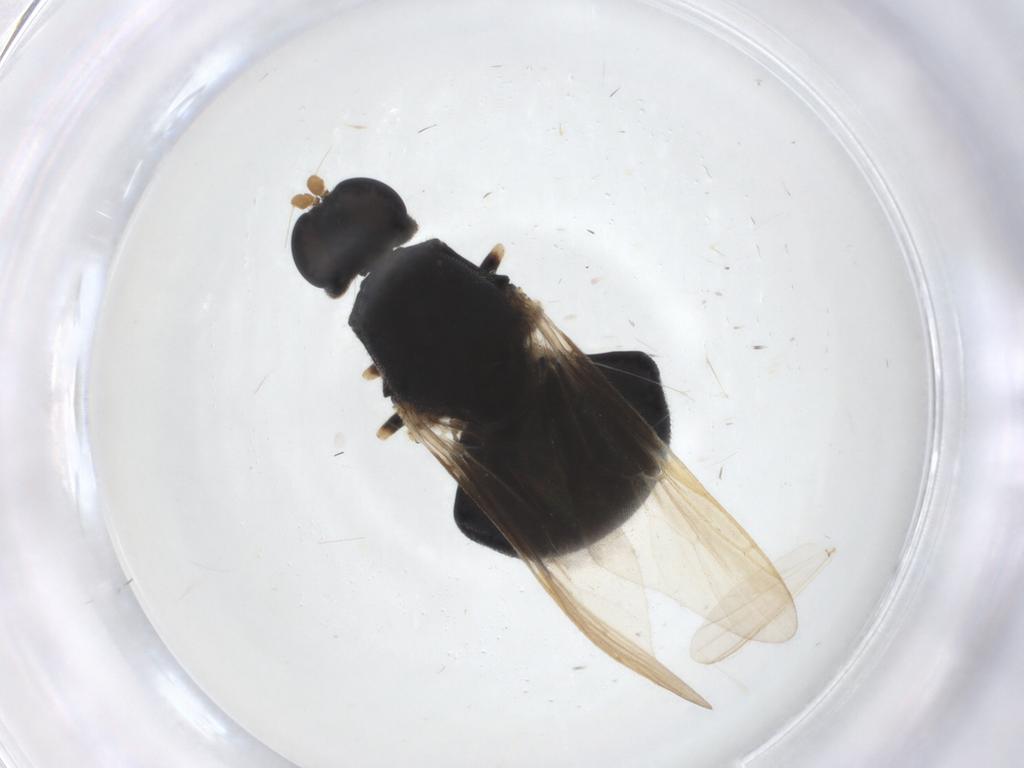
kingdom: Animalia
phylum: Arthropoda
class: Insecta
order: Diptera
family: Stratiomyidae
